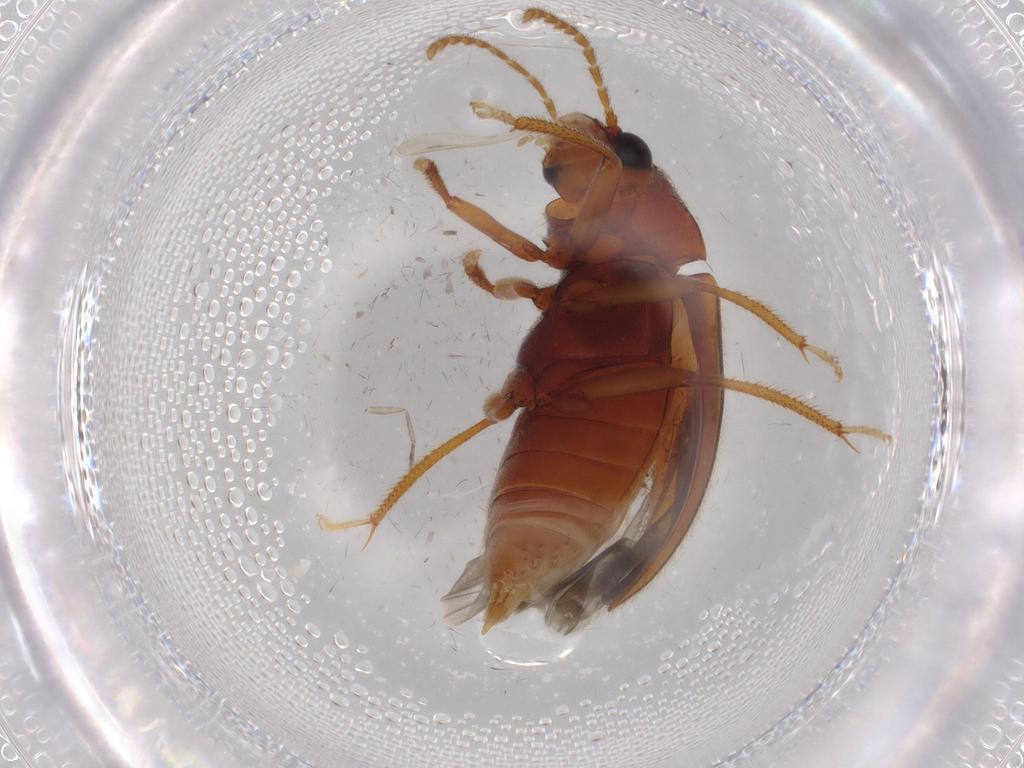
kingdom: Animalia
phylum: Arthropoda
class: Insecta
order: Coleoptera
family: Ptilodactylidae
